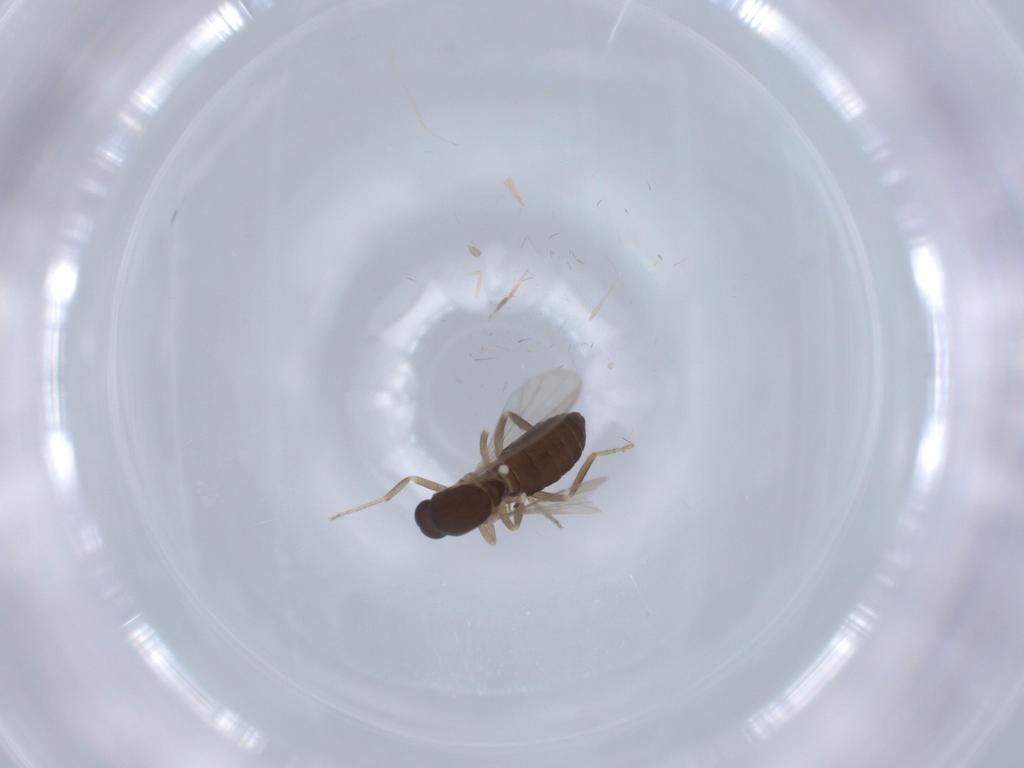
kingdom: Animalia
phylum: Arthropoda
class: Insecta
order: Diptera
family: Ceratopogonidae
